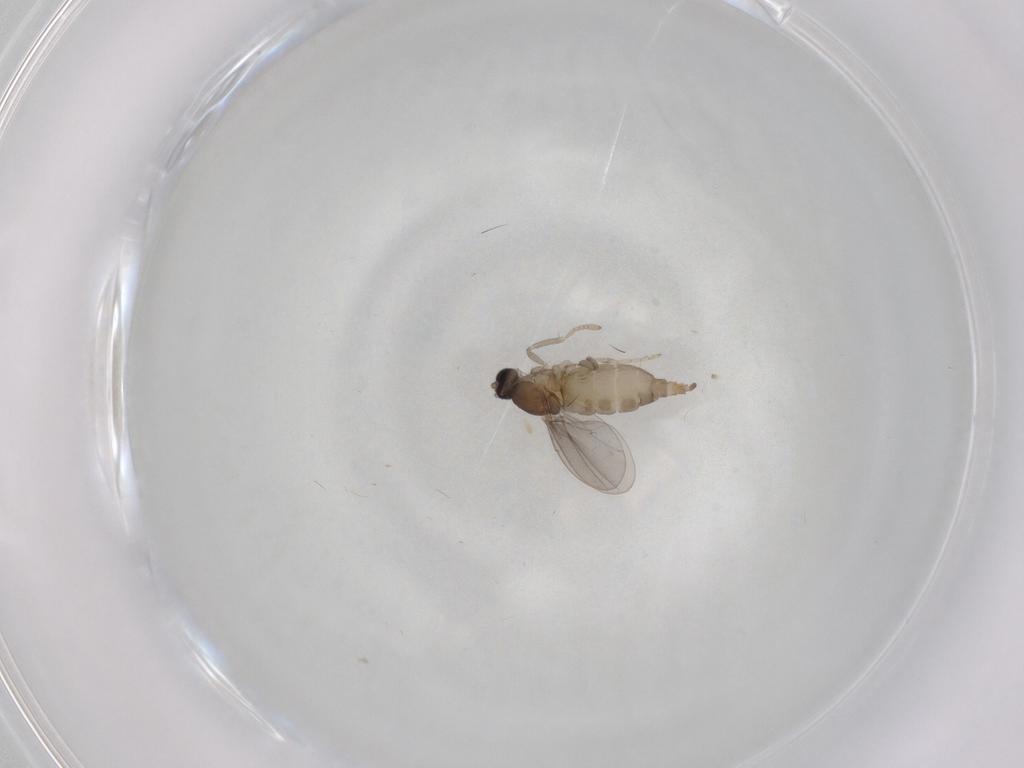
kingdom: Animalia
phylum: Arthropoda
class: Insecta
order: Diptera
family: Cecidomyiidae
